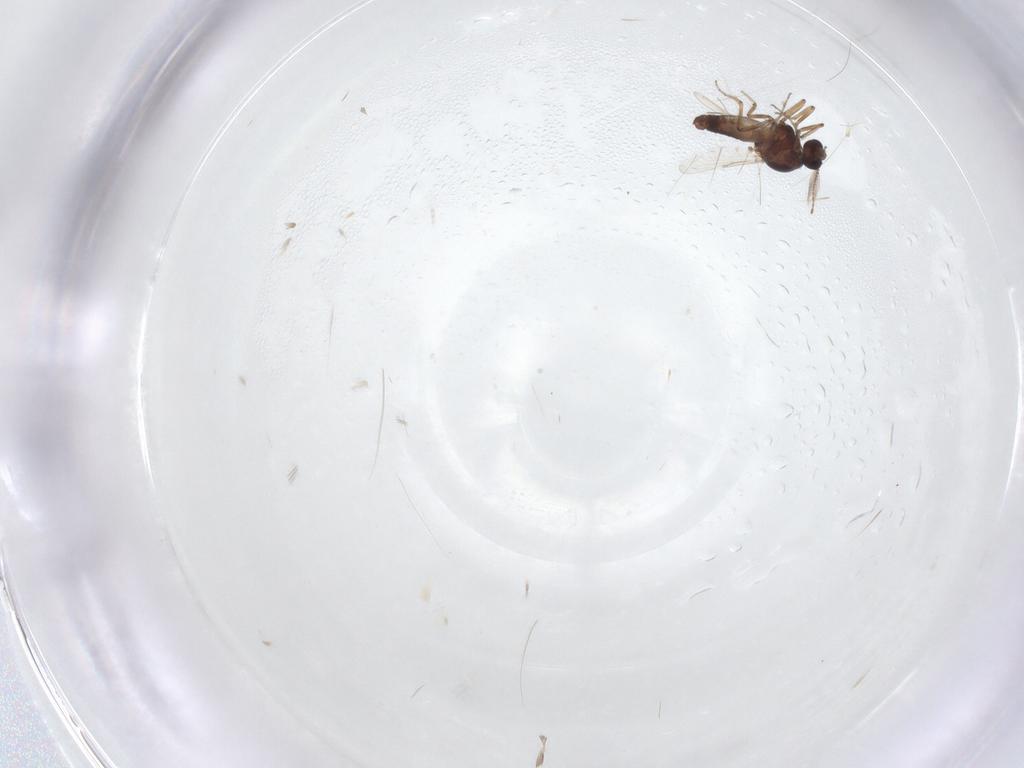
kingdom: Animalia
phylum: Arthropoda
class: Insecta
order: Diptera
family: Ceratopogonidae
